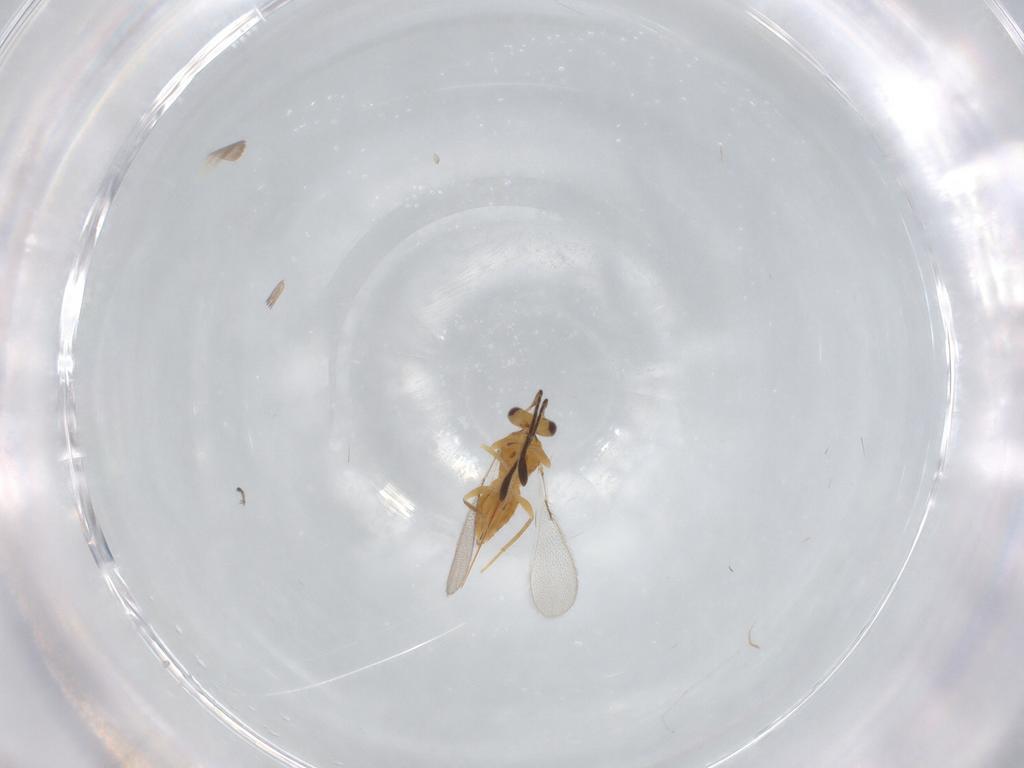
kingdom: Animalia
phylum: Arthropoda
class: Insecta
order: Hymenoptera
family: Mymaridae
